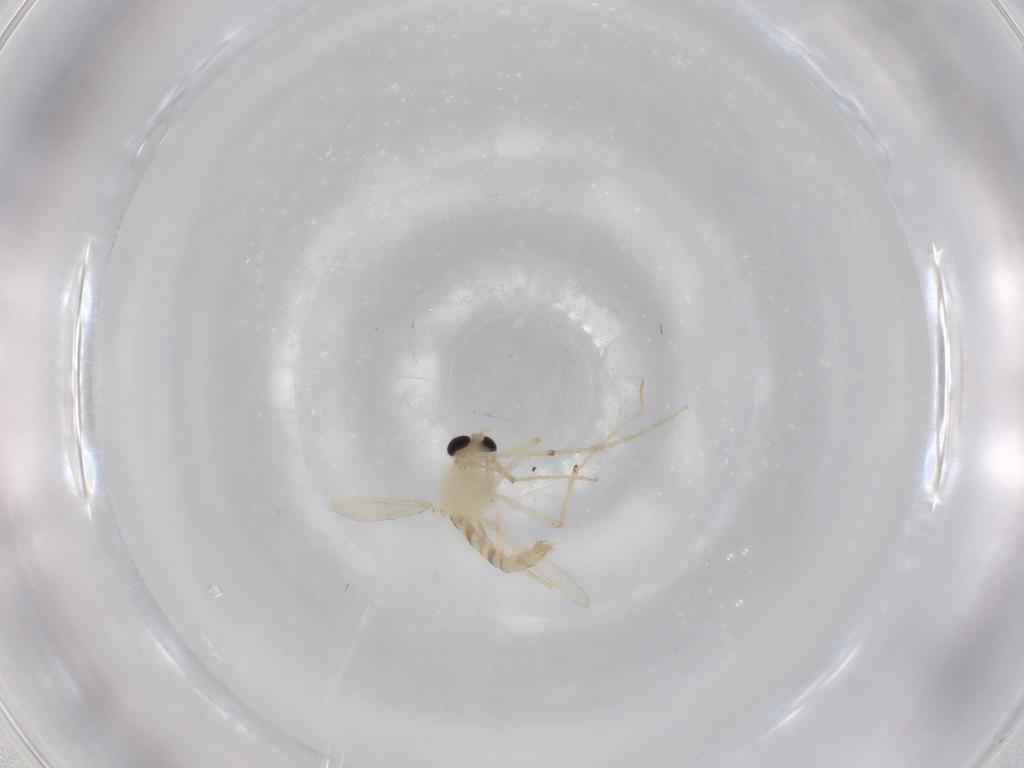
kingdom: Animalia
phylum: Arthropoda
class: Insecta
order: Diptera
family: Chironomidae
